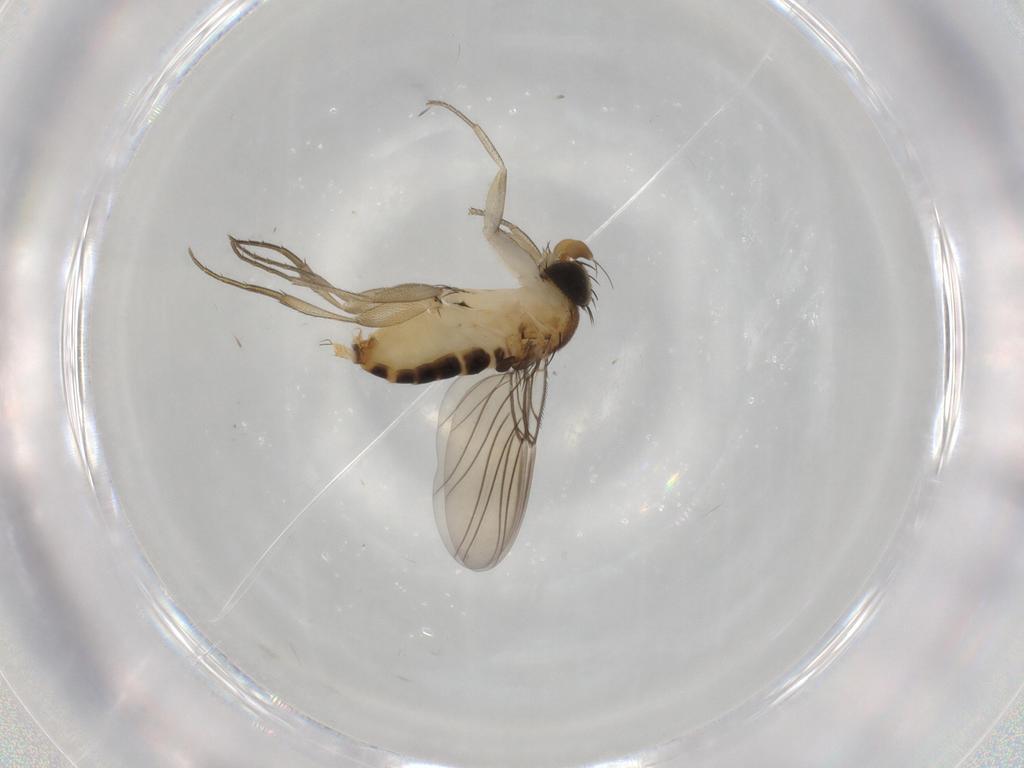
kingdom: Animalia
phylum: Arthropoda
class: Insecta
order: Diptera
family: Phoridae
